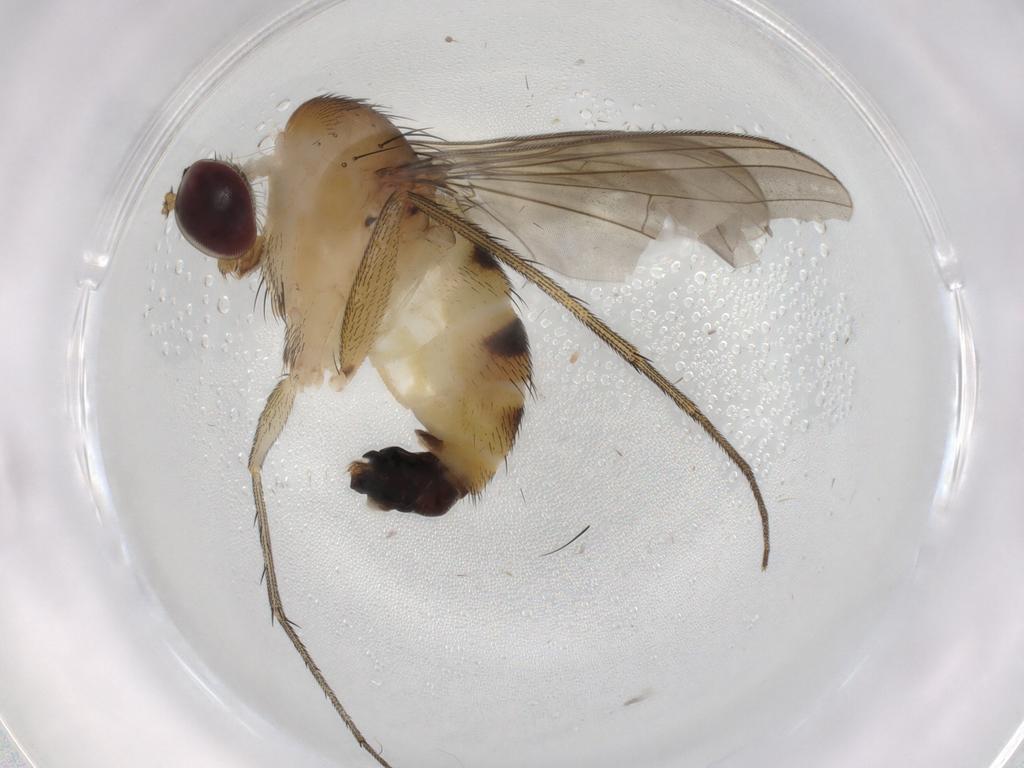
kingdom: Animalia
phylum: Arthropoda
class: Insecta
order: Diptera
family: Dolichopodidae
